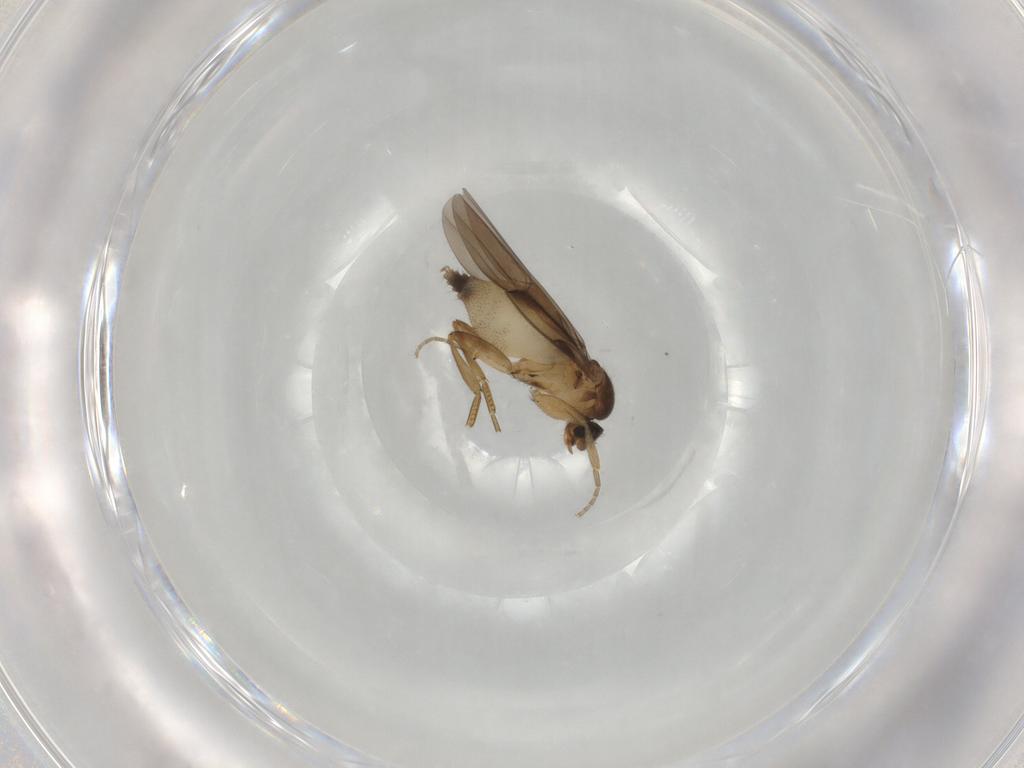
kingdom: Animalia
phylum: Arthropoda
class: Insecta
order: Diptera
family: Phoridae
